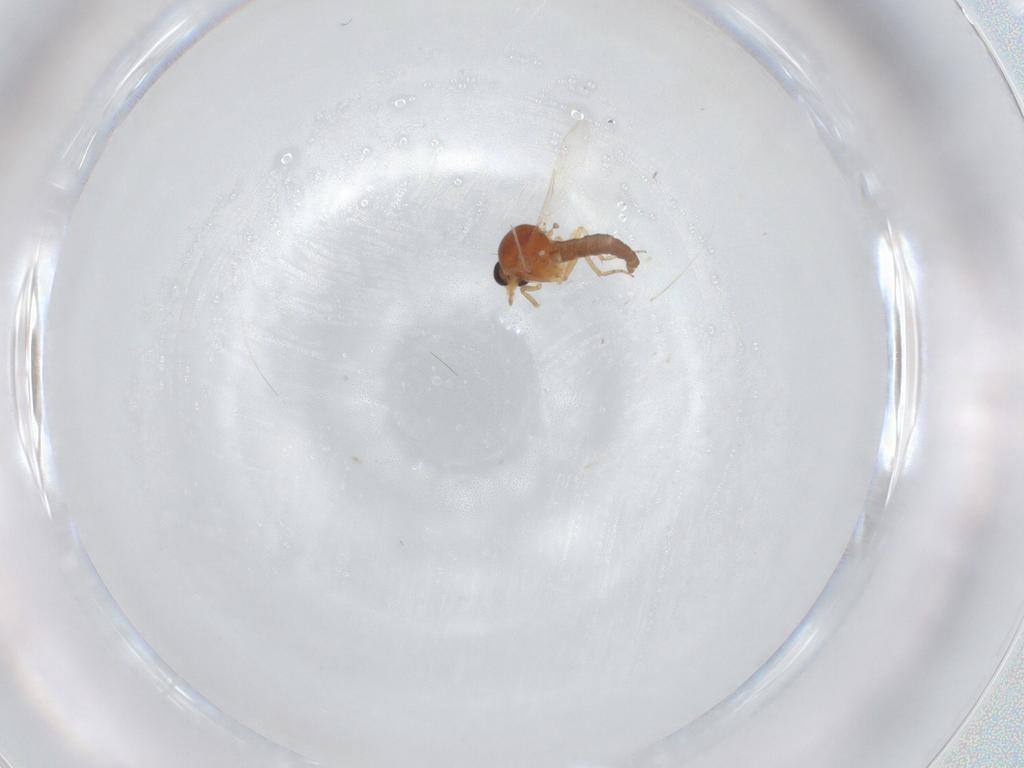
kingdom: Animalia
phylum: Arthropoda
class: Insecta
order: Diptera
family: Ceratopogonidae
